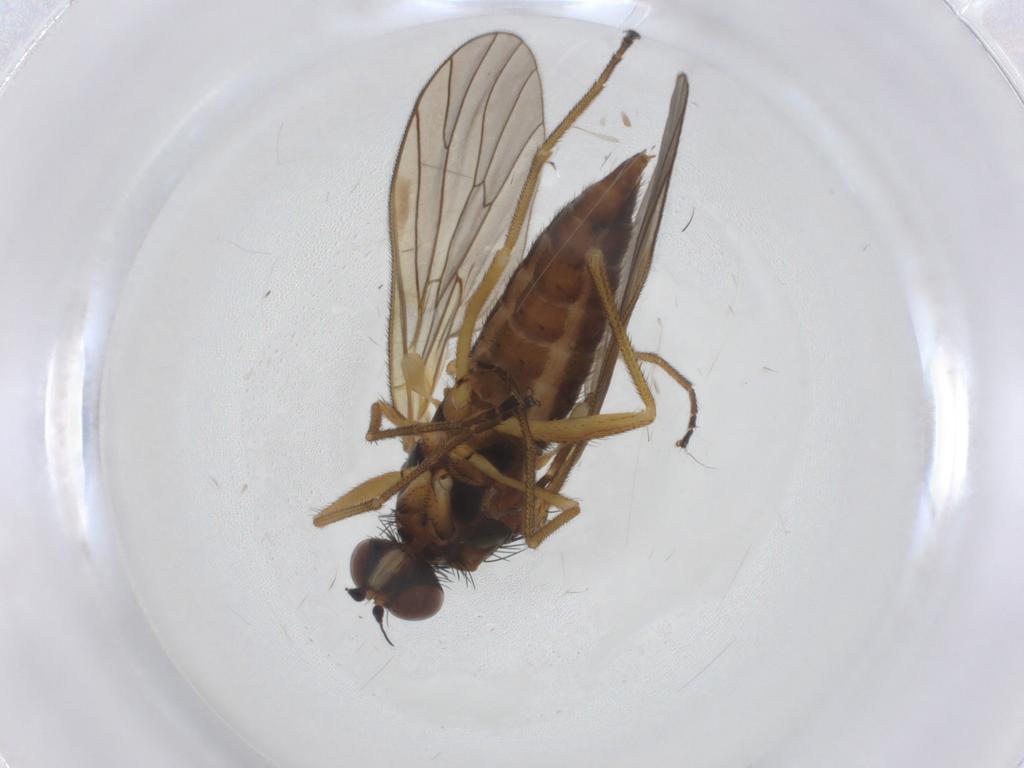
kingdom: Animalia
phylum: Arthropoda
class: Insecta
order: Diptera
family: Brachystomatidae
